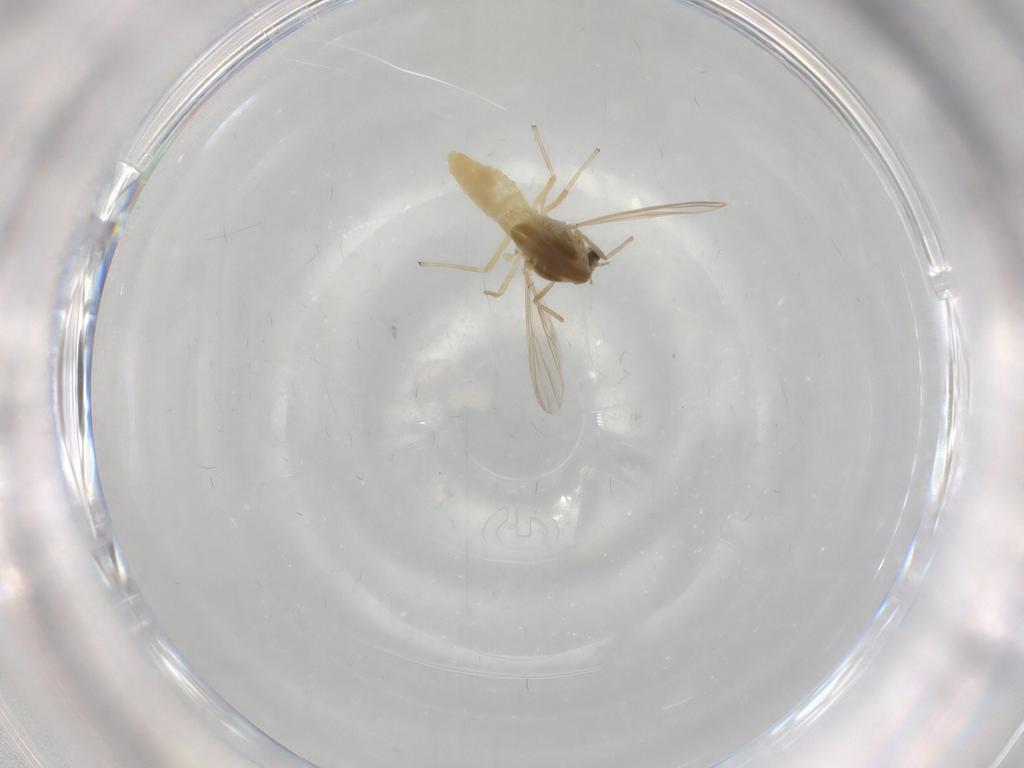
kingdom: Animalia
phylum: Arthropoda
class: Insecta
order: Diptera
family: Chironomidae
